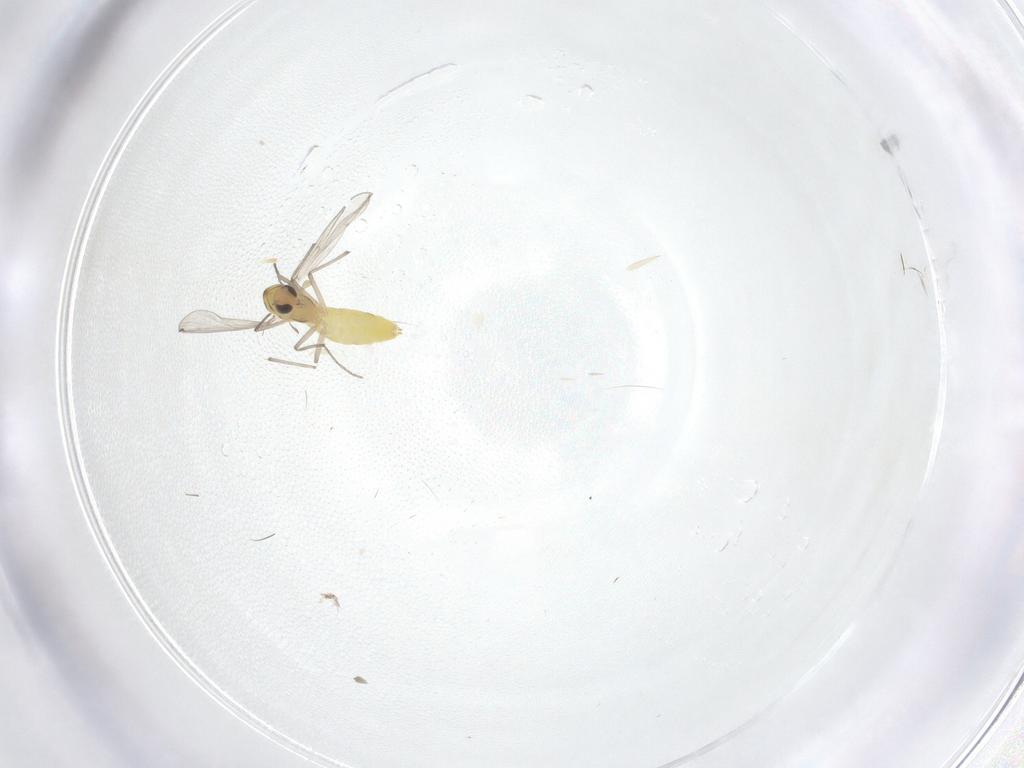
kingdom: Animalia
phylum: Arthropoda
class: Insecta
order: Diptera
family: Chironomidae
